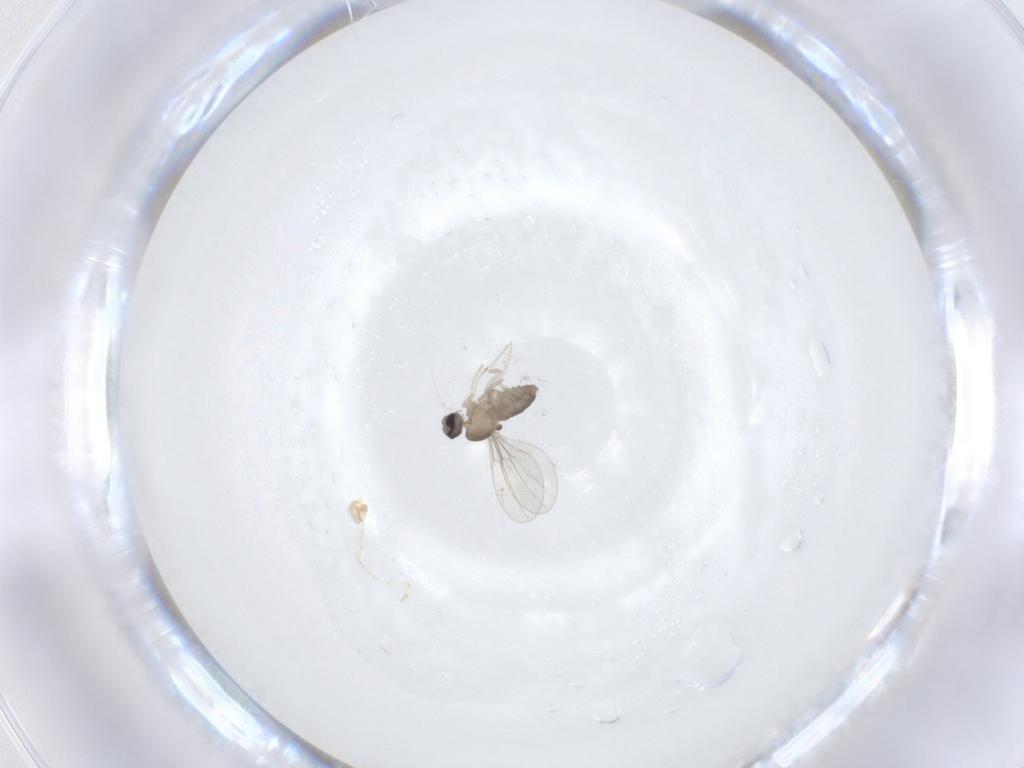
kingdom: Animalia
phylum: Arthropoda
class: Insecta
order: Diptera
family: Cecidomyiidae
